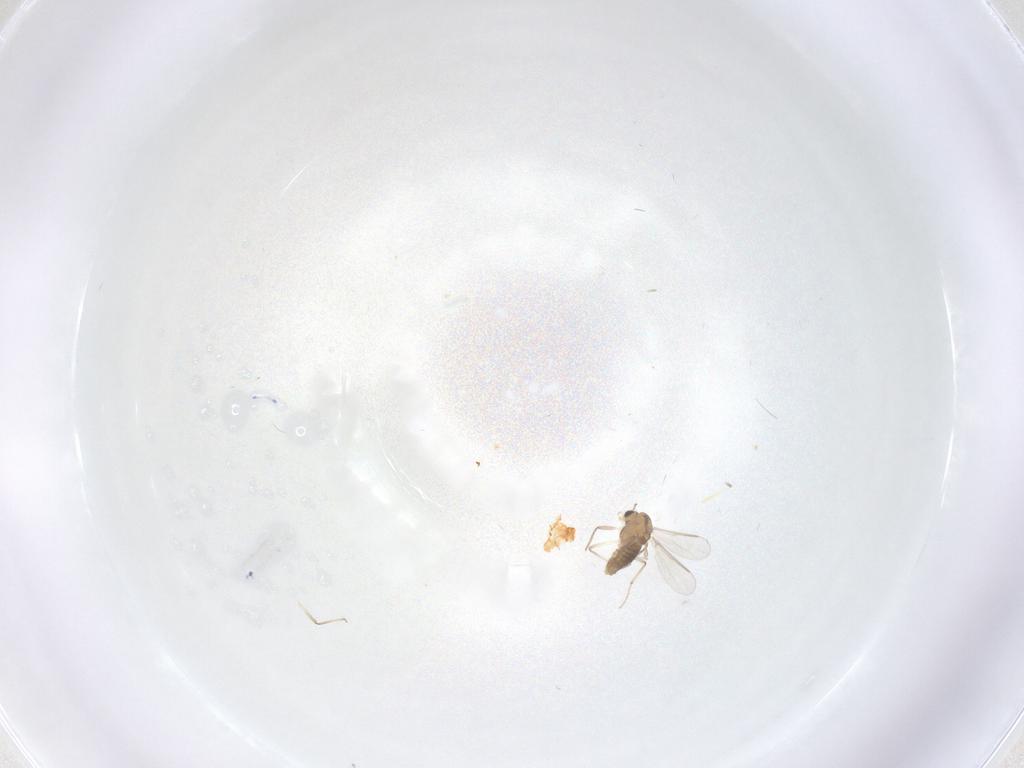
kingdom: Animalia
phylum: Arthropoda
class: Insecta
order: Diptera
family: Chironomidae
